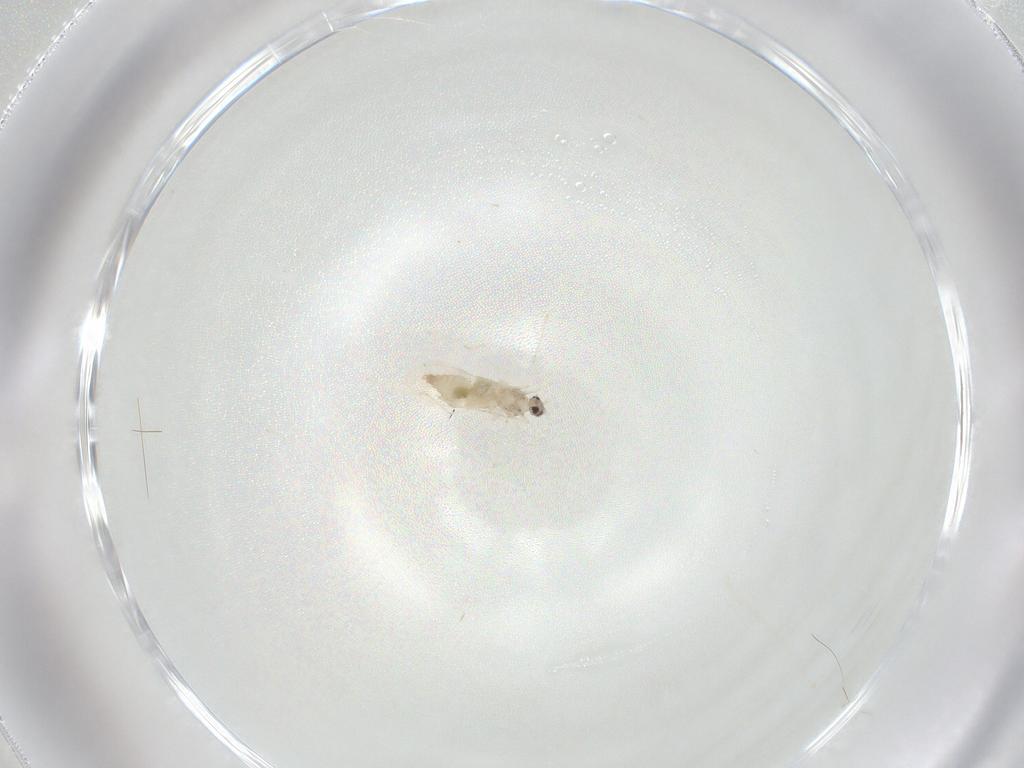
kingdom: Animalia
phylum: Arthropoda
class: Insecta
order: Diptera
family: Cecidomyiidae
